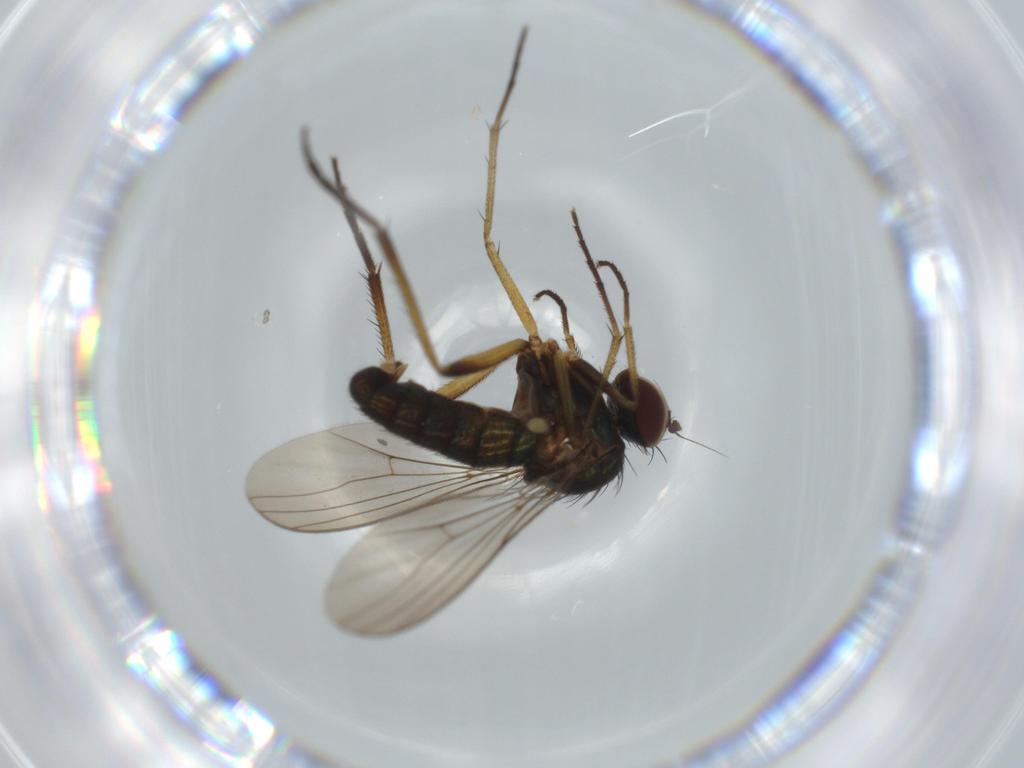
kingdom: Animalia
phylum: Arthropoda
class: Insecta
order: Diptera
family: Dolichopodidae
